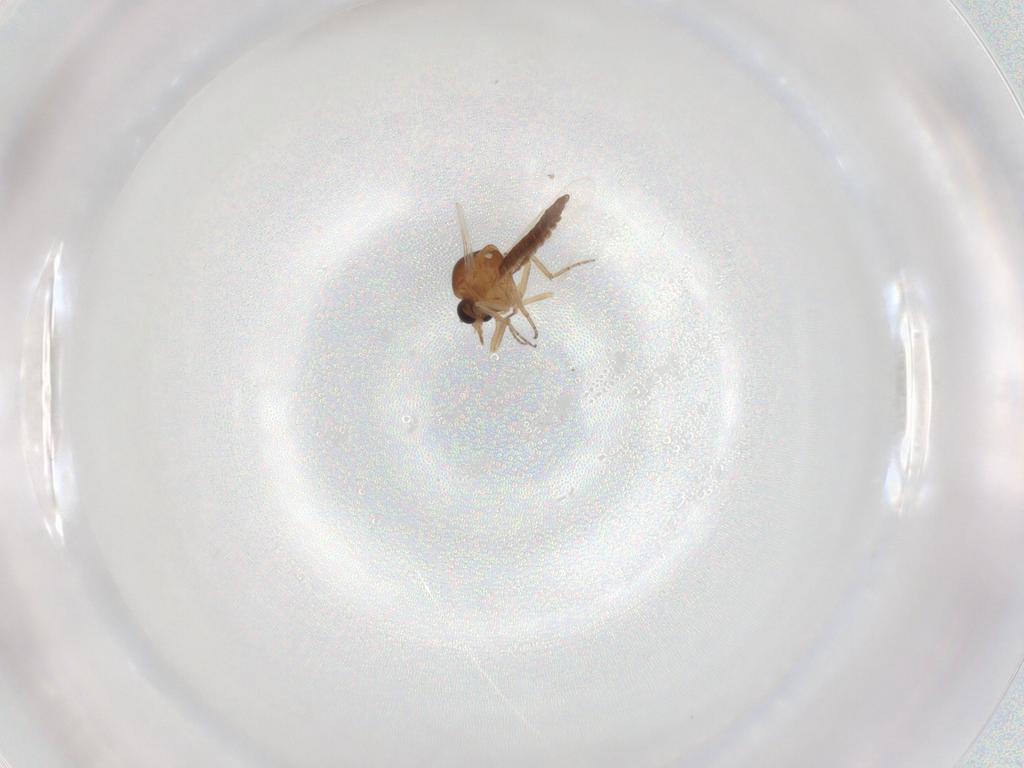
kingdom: Animalia
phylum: Arthropoda
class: Insecta
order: Diptera
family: Ceratopogonidae
